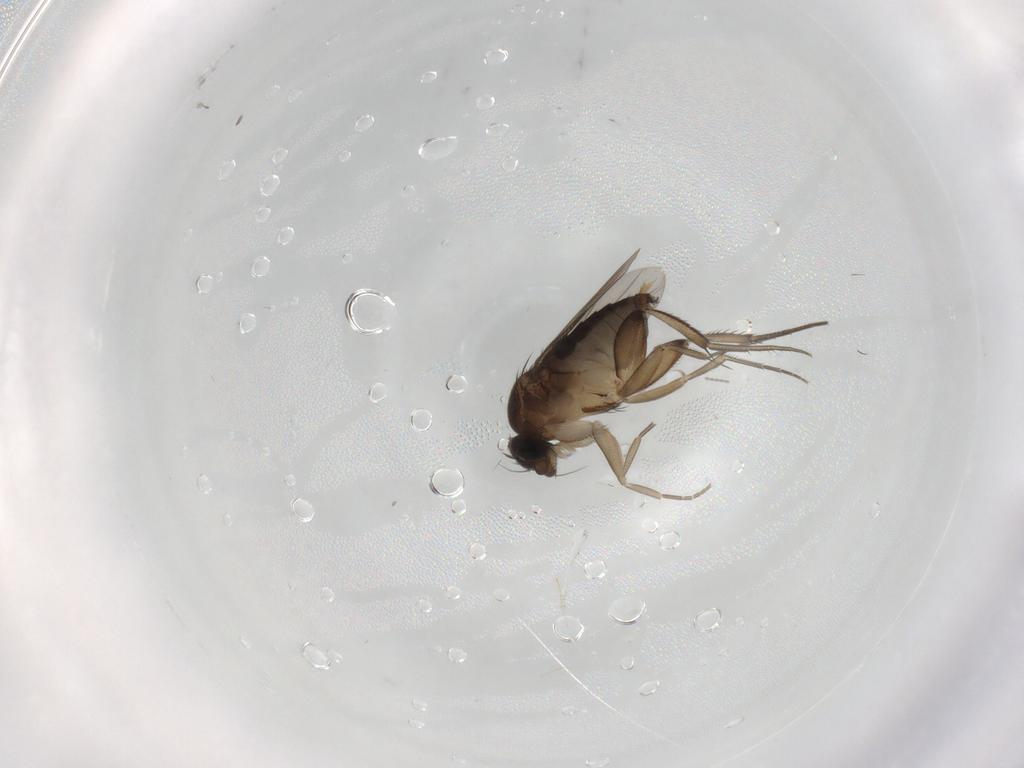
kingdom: Animalia
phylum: Arthropoda
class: Insecta
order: Diptera
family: Phoridae
